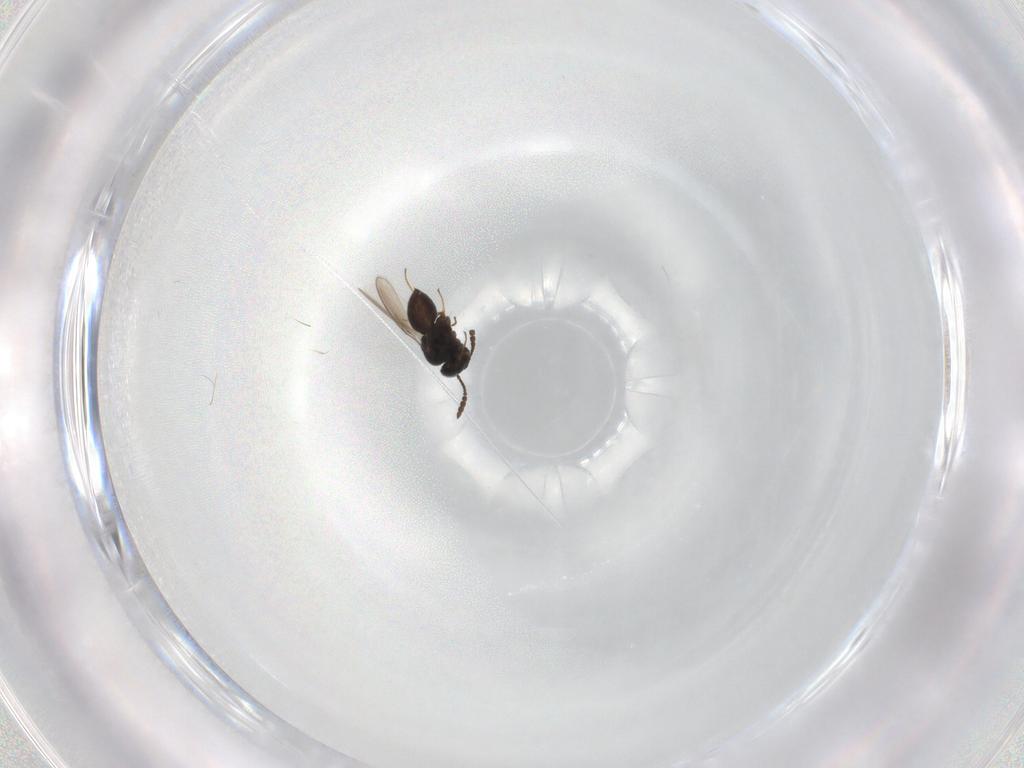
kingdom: Animalia
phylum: Arthropoda
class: Insecta
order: Hymenoptera
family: Scelionidae
